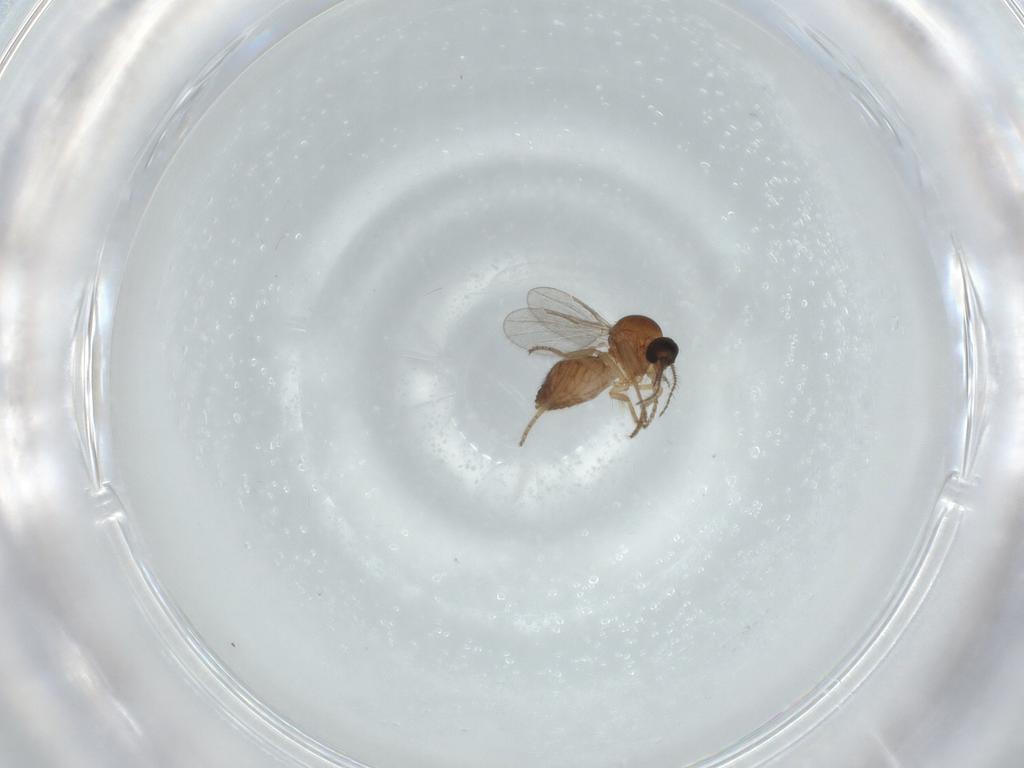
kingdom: Animalia
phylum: Arthropoda
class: Insecta
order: Diptera
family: Ceratopogonidae
